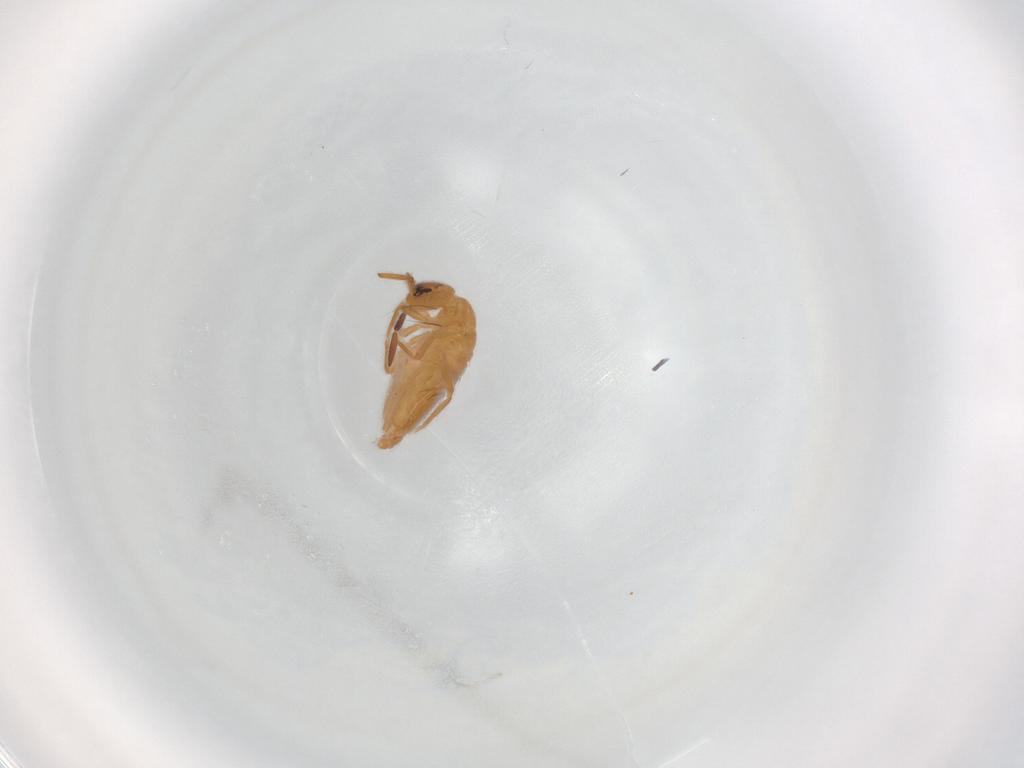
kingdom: Animalia
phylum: Arthropoda
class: Collembola
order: Entomobryomorpha
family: Entomobryidae
